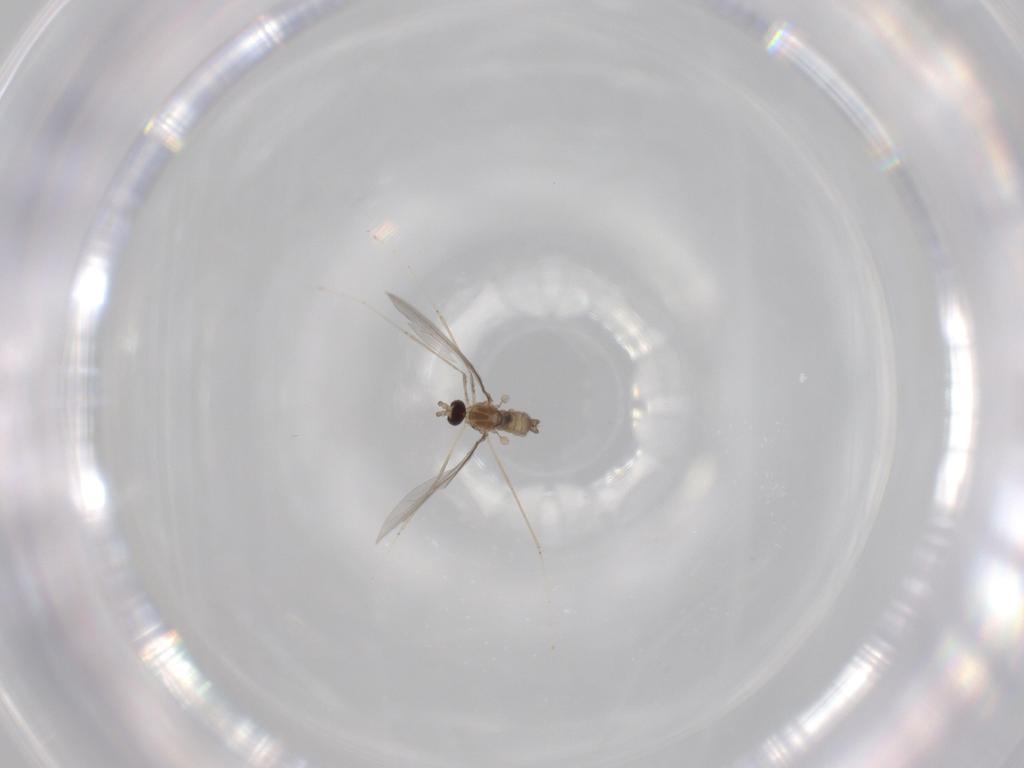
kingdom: Animalia
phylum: Arthropoda
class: Insecta
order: Diptera
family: Cecidomyiidae
